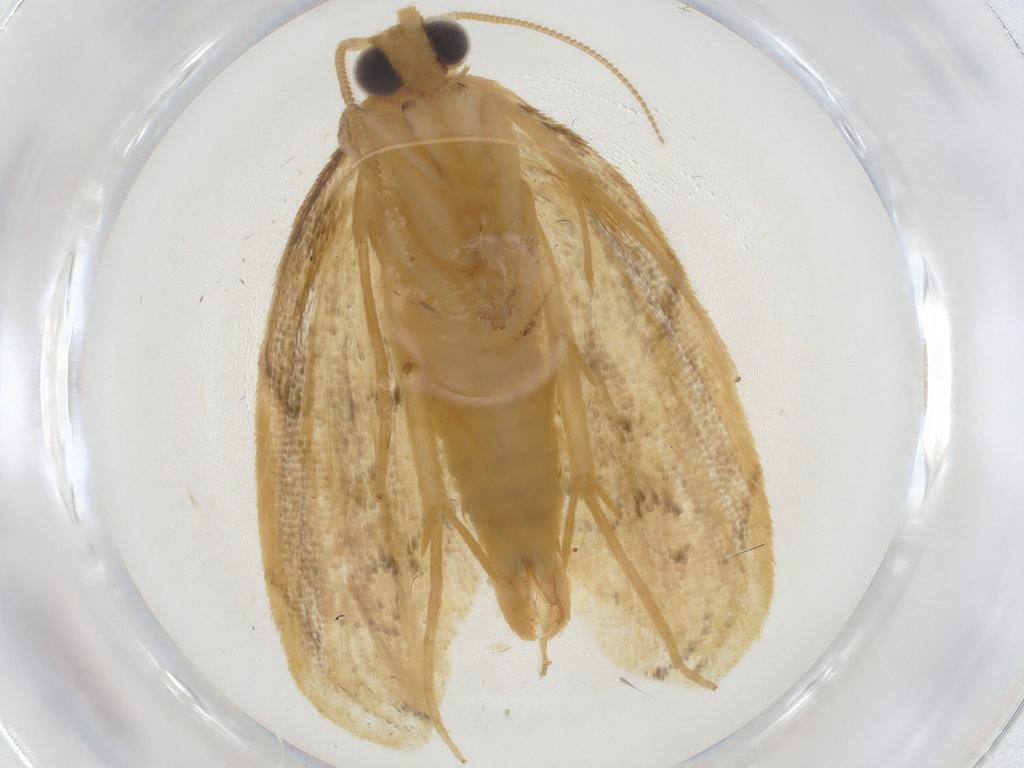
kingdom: Animalia
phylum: Arthropoda
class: Insecta
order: Lepidoptera
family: Psychidae
